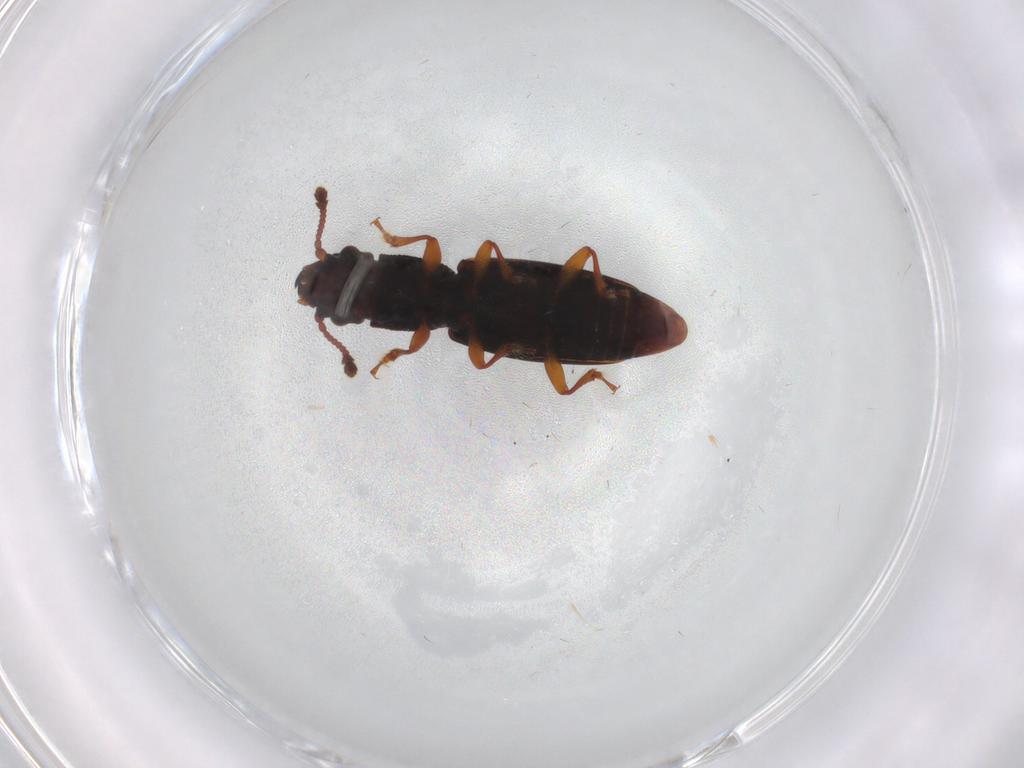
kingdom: Animalia
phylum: Arthropoda
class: Insecta
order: Coleoptera
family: Monotomidae
